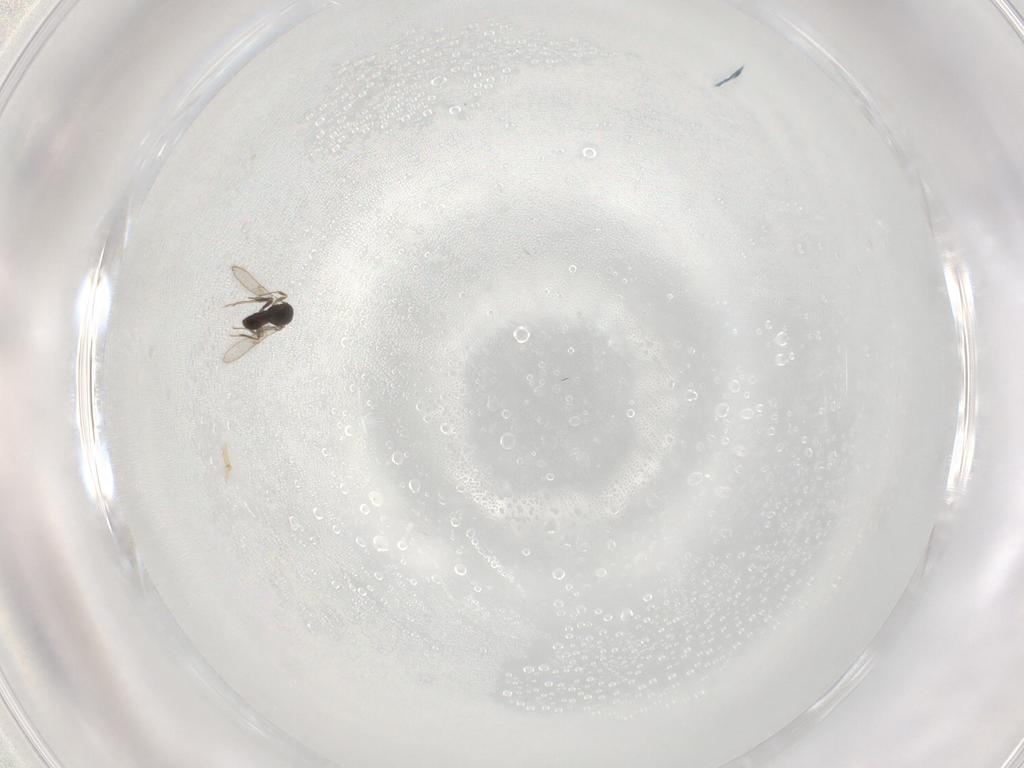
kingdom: Animalia
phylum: Arthropoda
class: Insecta
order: Hymenoptera
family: Scelionidae
